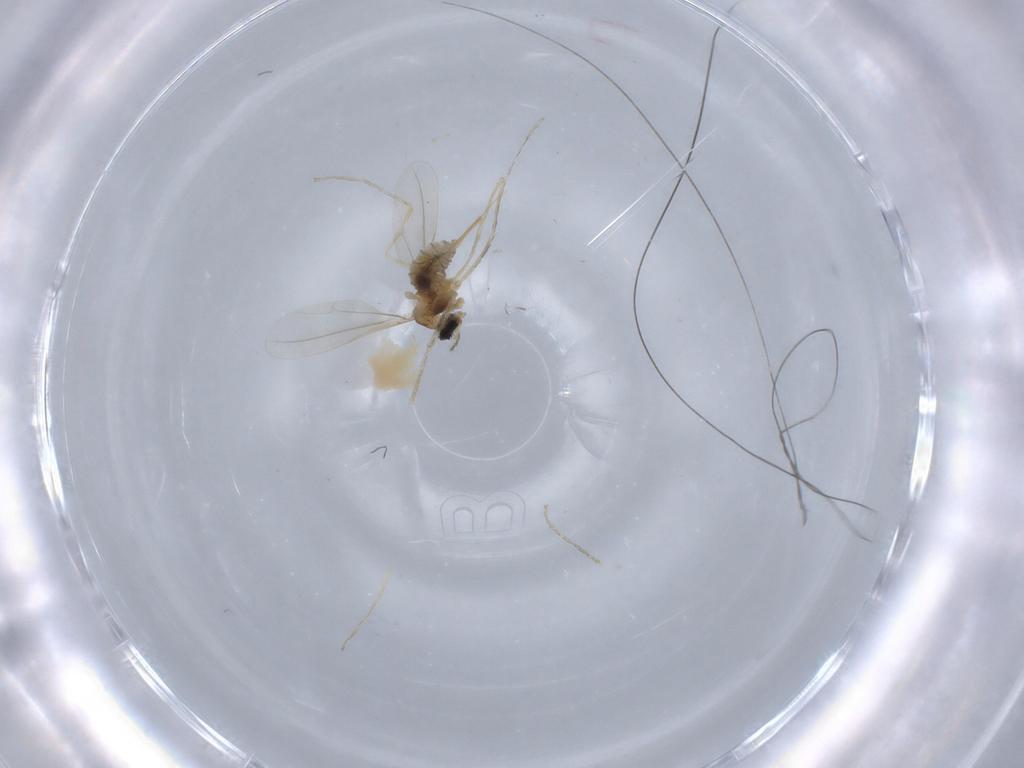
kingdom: Animalia
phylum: Arthropoda
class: Insecta
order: Diptera
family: Cecidomyiidae
